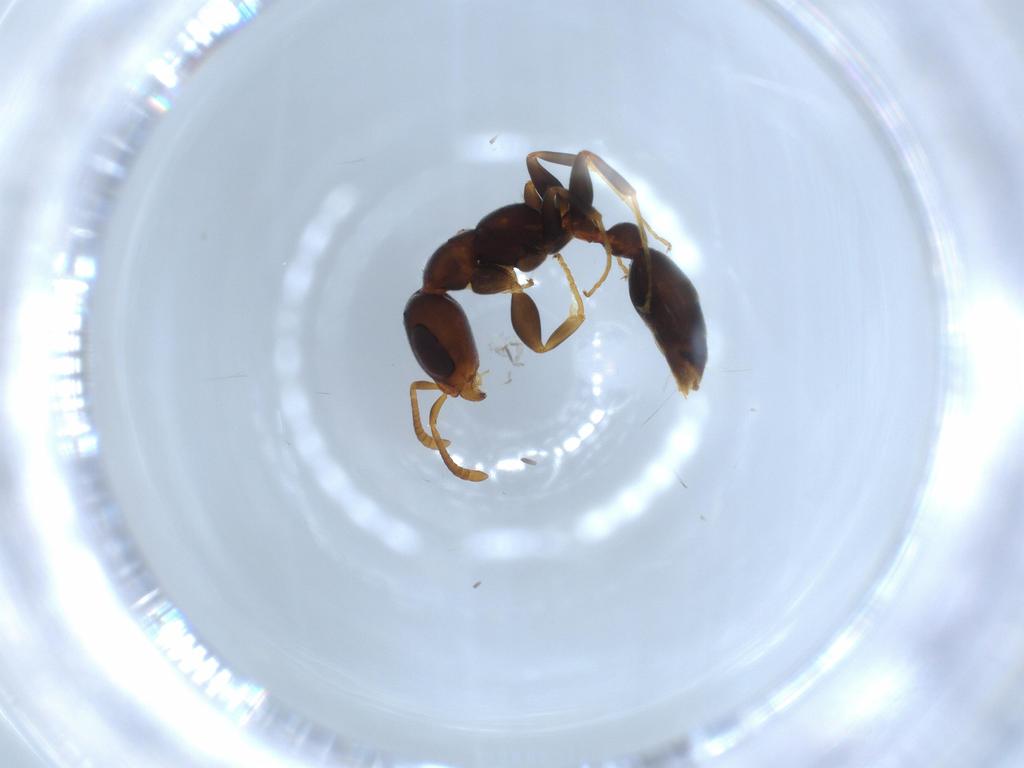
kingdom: Animalia
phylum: Arthropoda
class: Insecta
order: Hymenoptera
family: Formicidae
